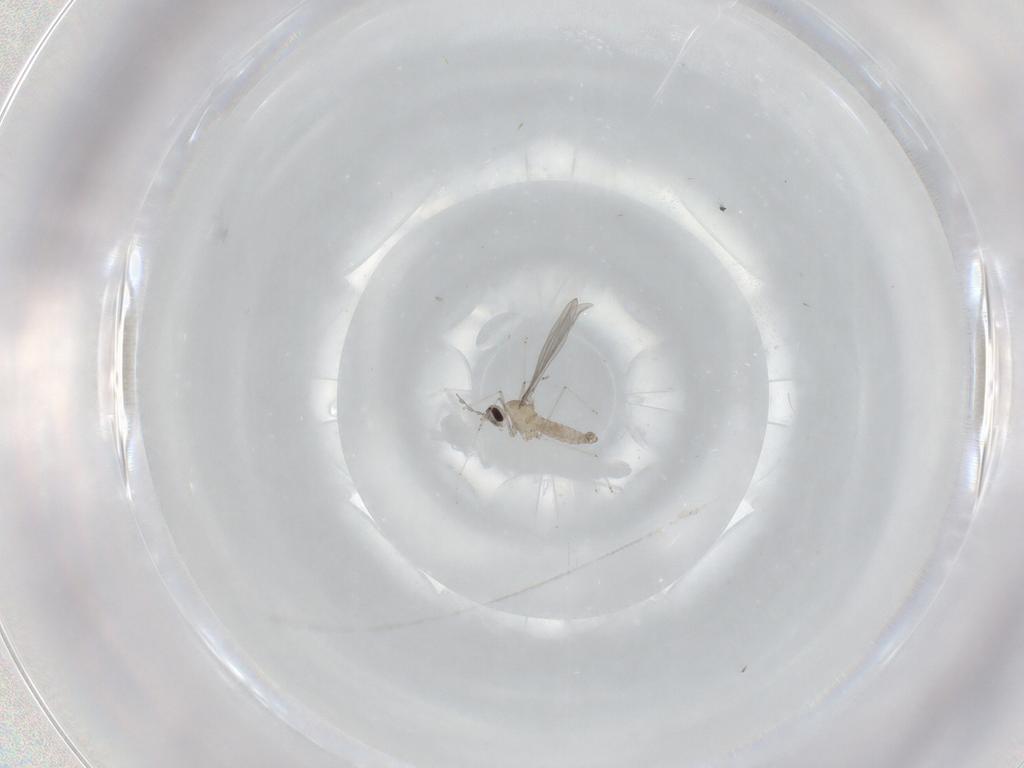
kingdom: Animalia
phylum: Arthropoda
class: Insecta
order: Diptera
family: Cecidomyiidae
